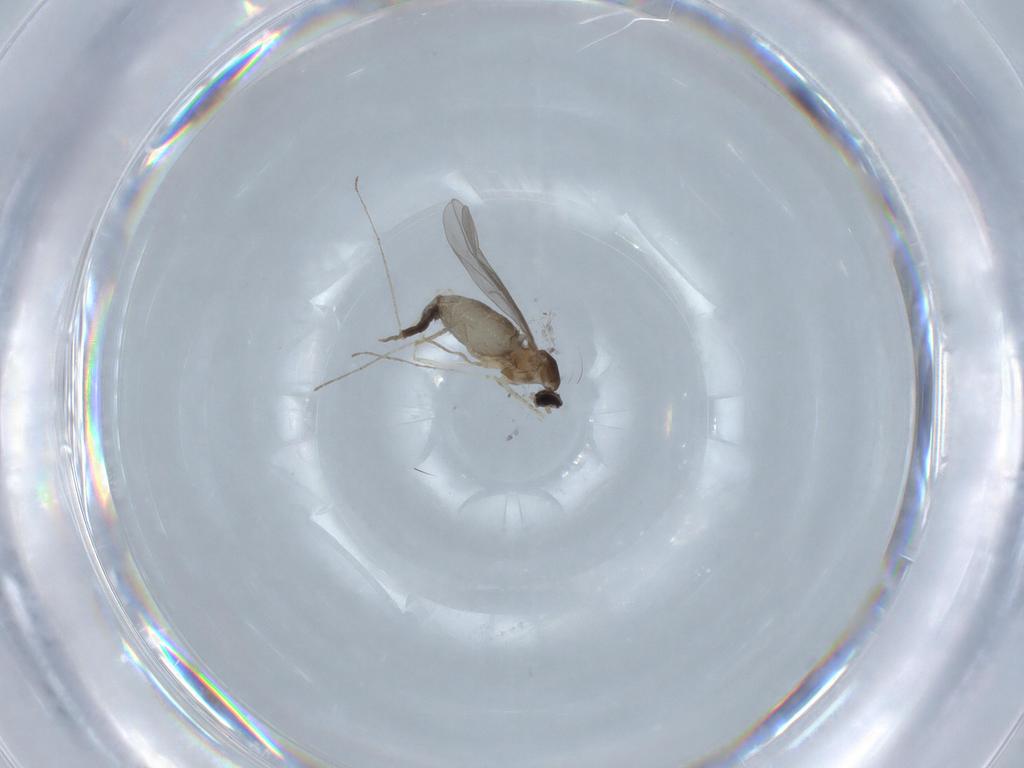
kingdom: Animalia
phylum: Arthropoda
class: Insecta
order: Diptera
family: Cecidomyiidae
